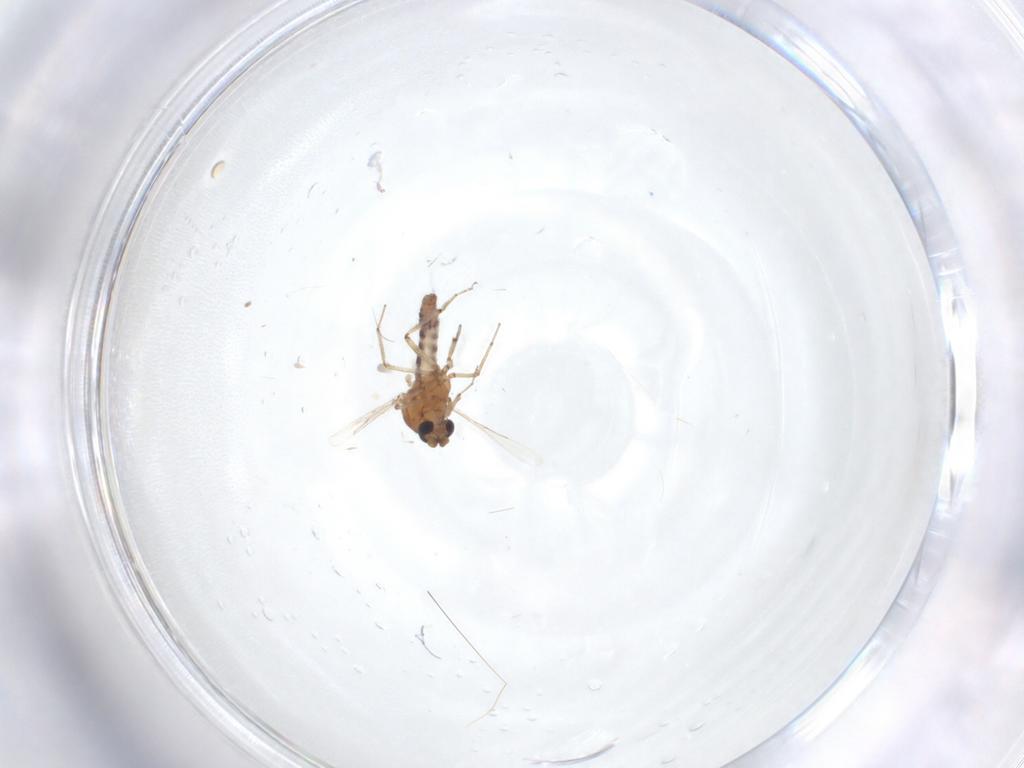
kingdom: Animalia
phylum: Arthropoda
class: Insecta
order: Diptera
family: Ceratopogonidae
